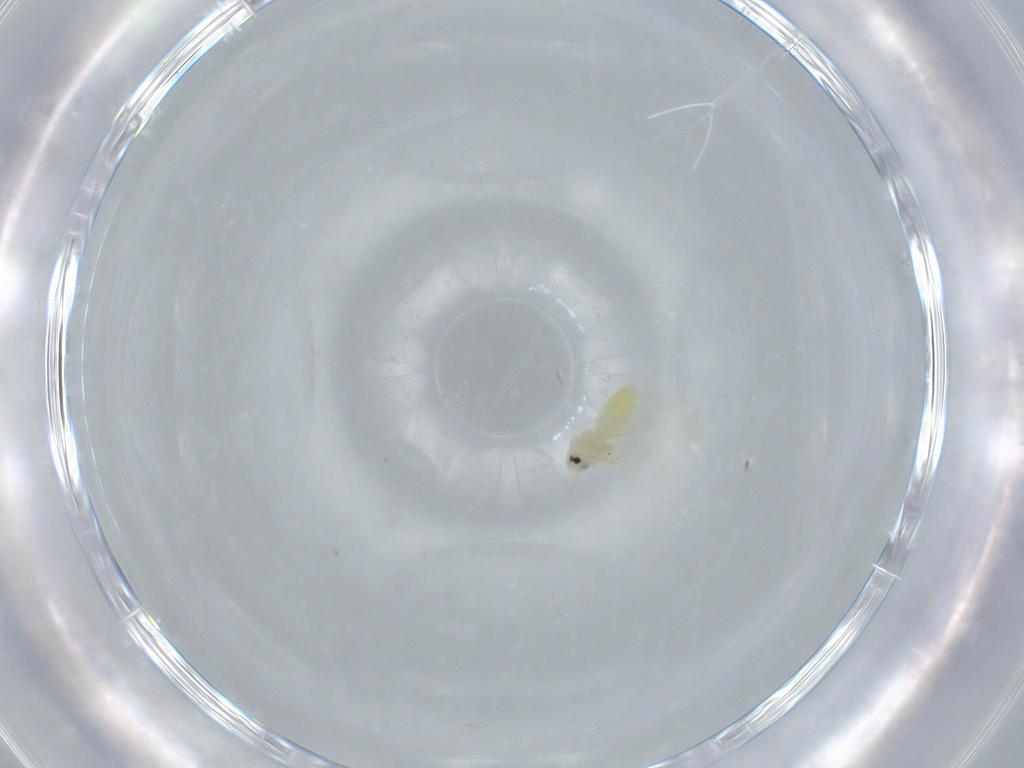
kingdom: Animalia
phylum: Arthropoda
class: Insecta
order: Hemiptera
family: Aleyrodidae
